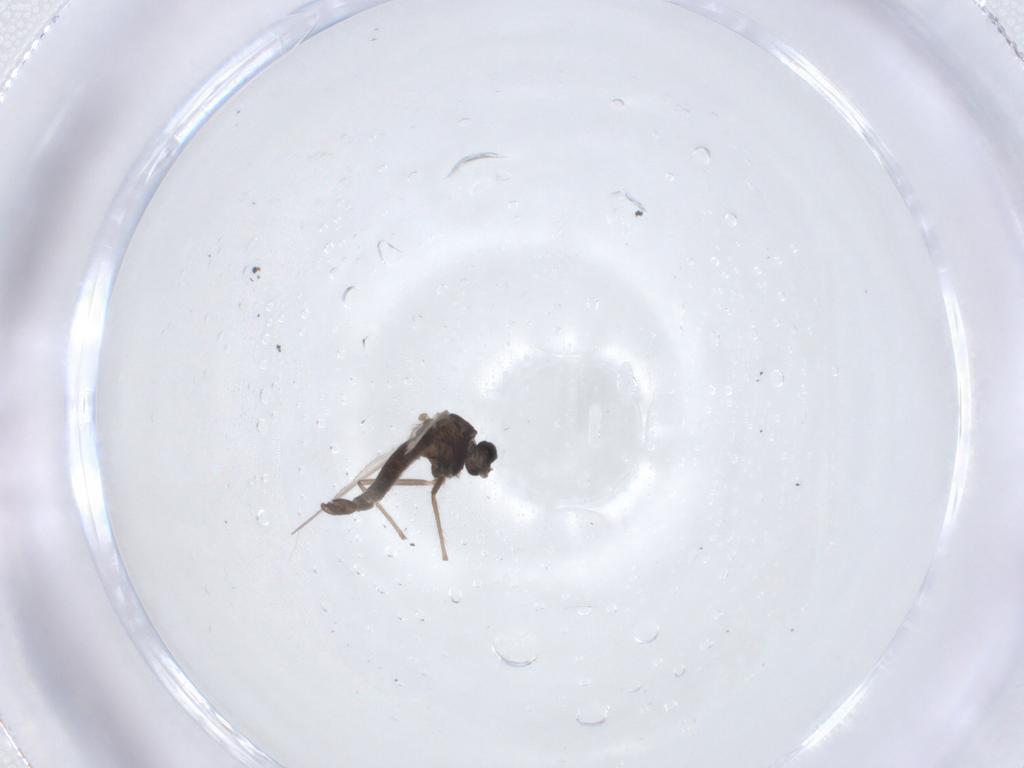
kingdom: Animalia
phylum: Arthropoda
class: Insecta
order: Diptera
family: Chironomidae
